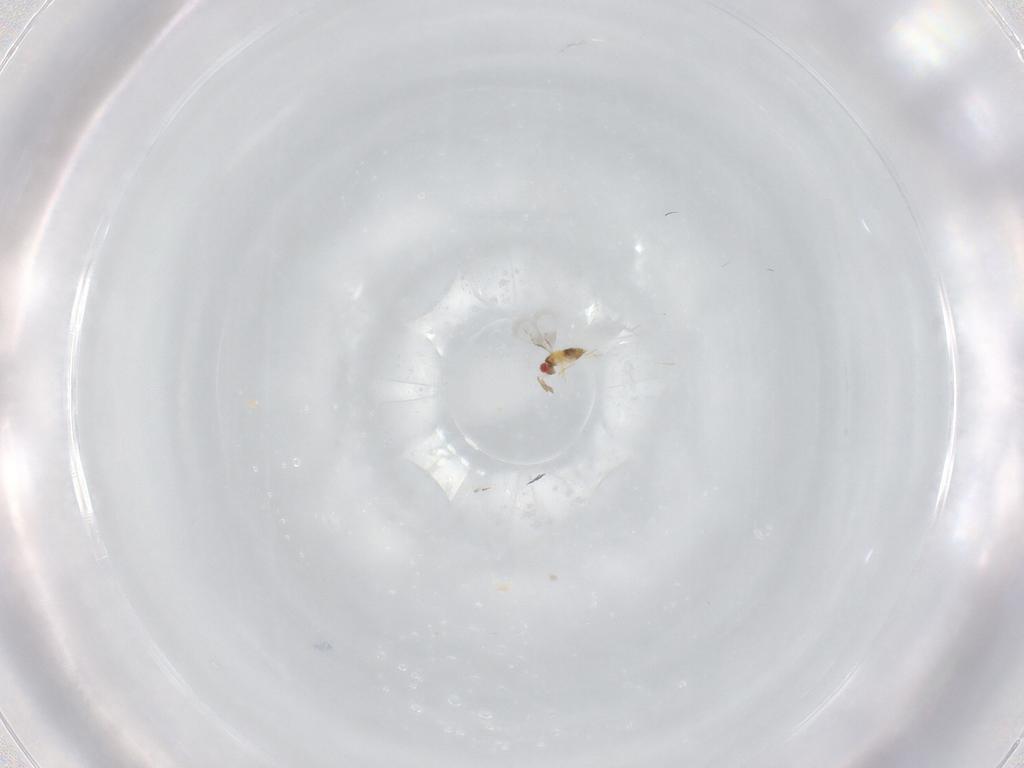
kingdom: Animalia
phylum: Arthropoda
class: Insecta
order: Hymenoptera
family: Trichogrammatidae
